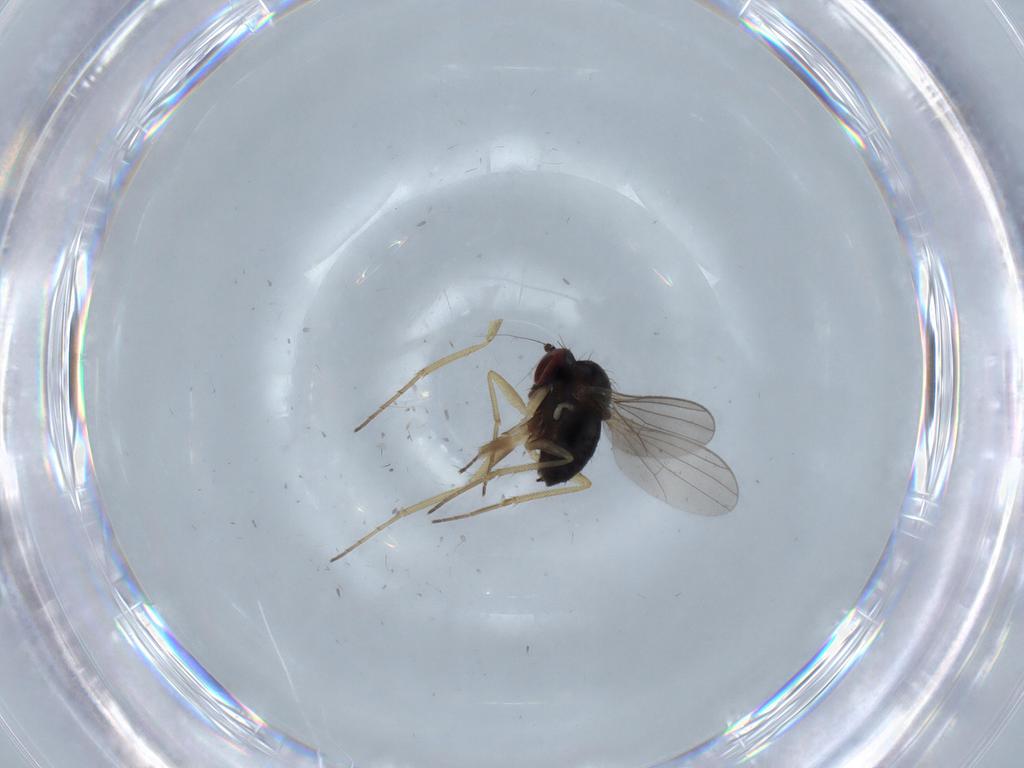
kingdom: Animalia
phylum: Arthropoda
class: Insecta
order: Diptera
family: Dolichopodidae
